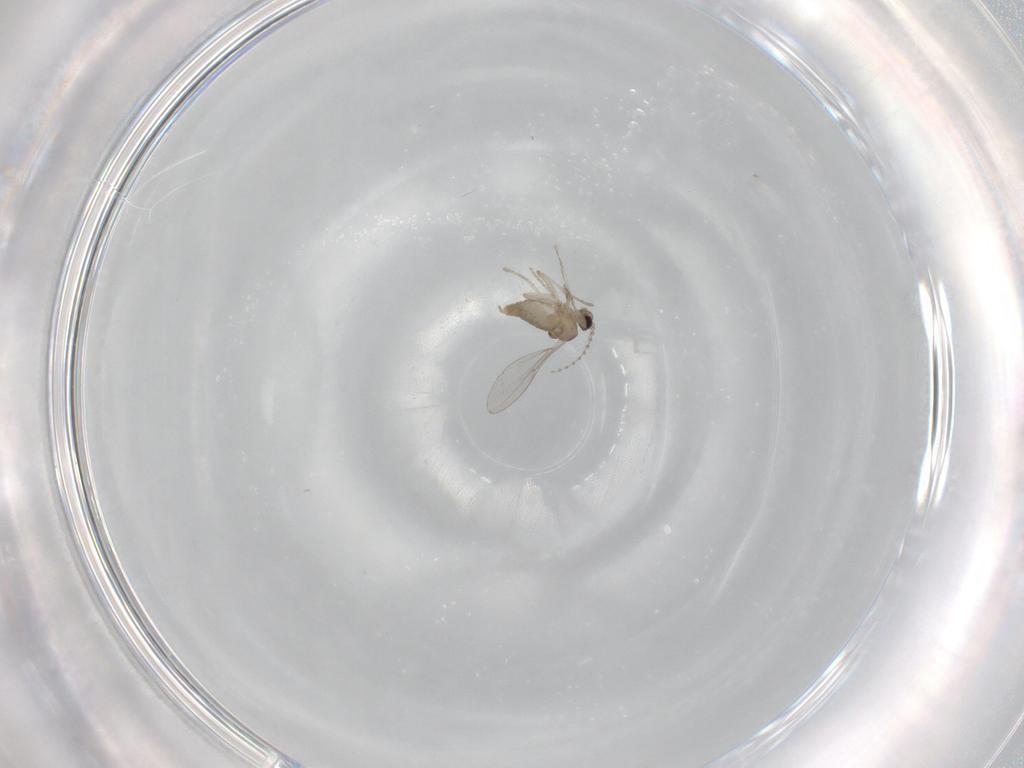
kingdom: Animalia
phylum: Arthropoda
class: Insecta
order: Diptera
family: Cecidomyiidae
